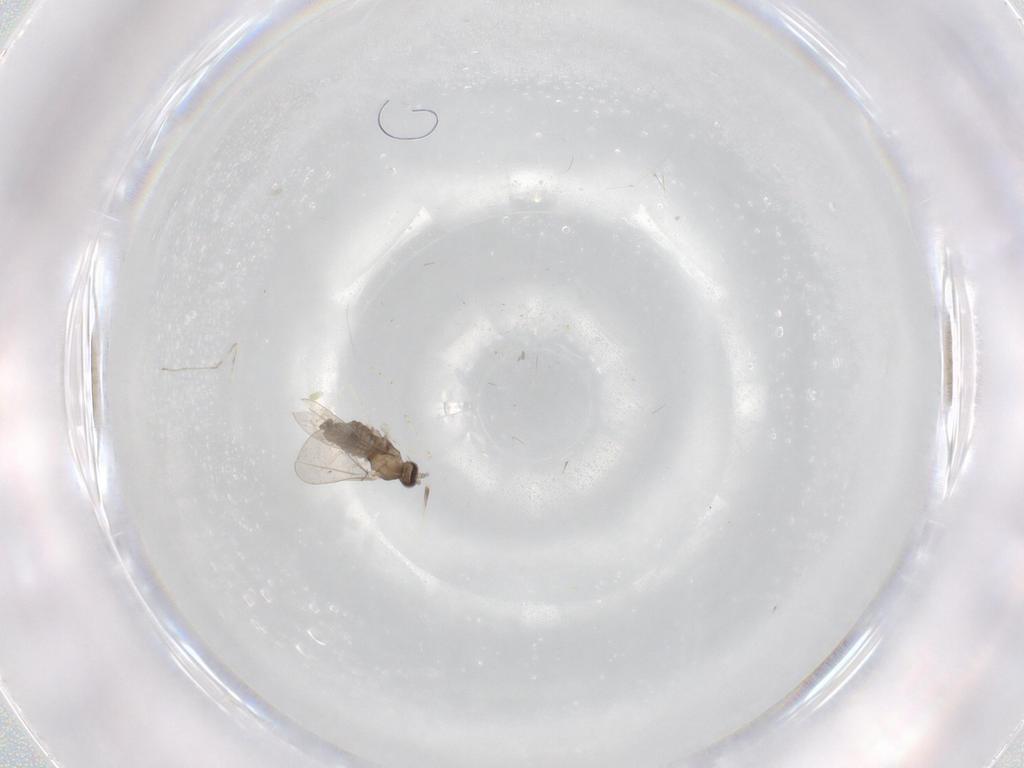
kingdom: Animalia
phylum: Arthropoda
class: Insecta
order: Diptera
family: Cecidomyiidae
